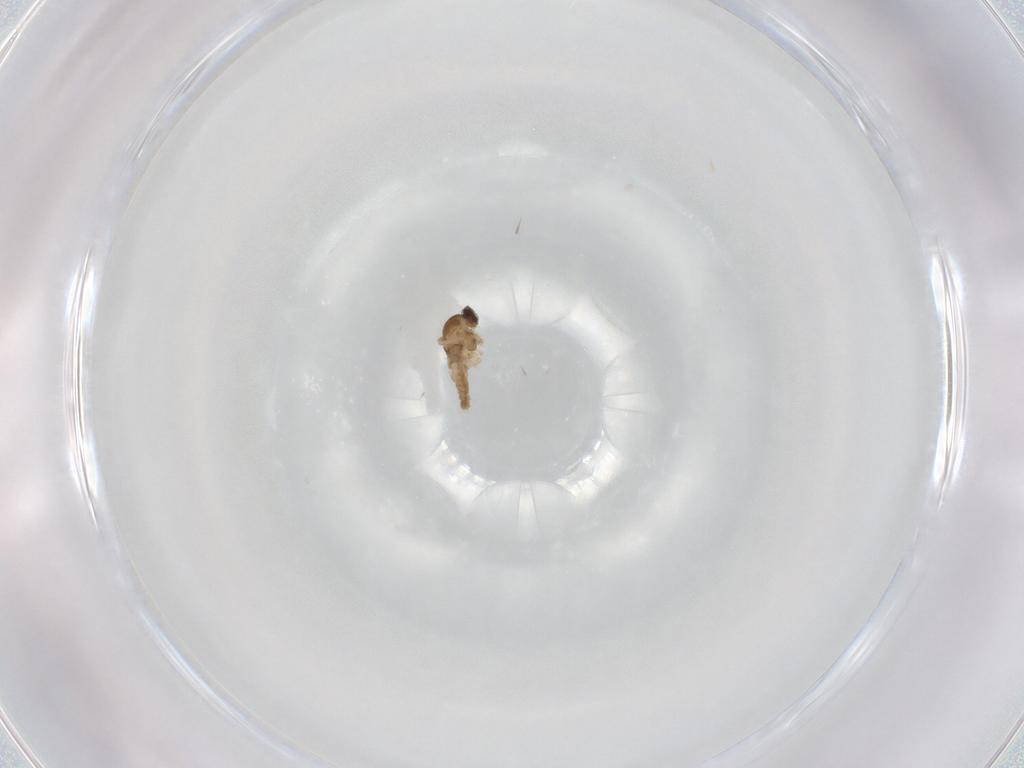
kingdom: Animalia
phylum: Arthropoda
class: Insecta
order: Diptera
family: Cecidomyiidae
